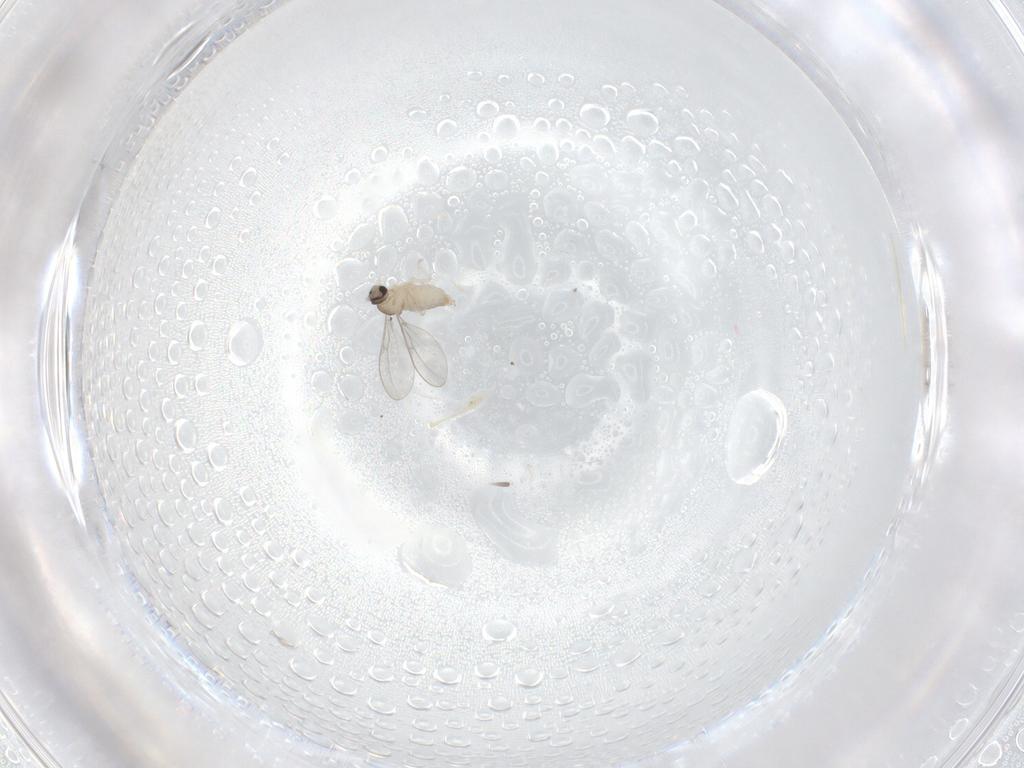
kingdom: Animalia
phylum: Arthropoda
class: Insecta
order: Diptera
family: Cecidomyiidae
